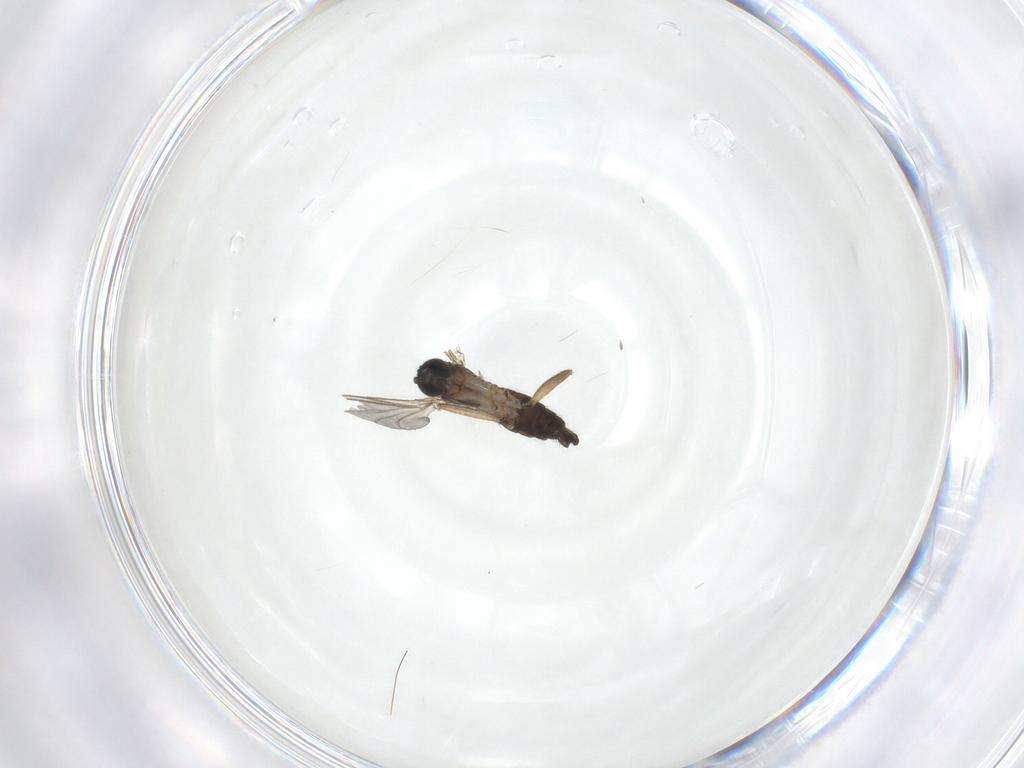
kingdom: Animalia
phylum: Arthropoda
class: Insecta
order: Diptera
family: Sciaridae
